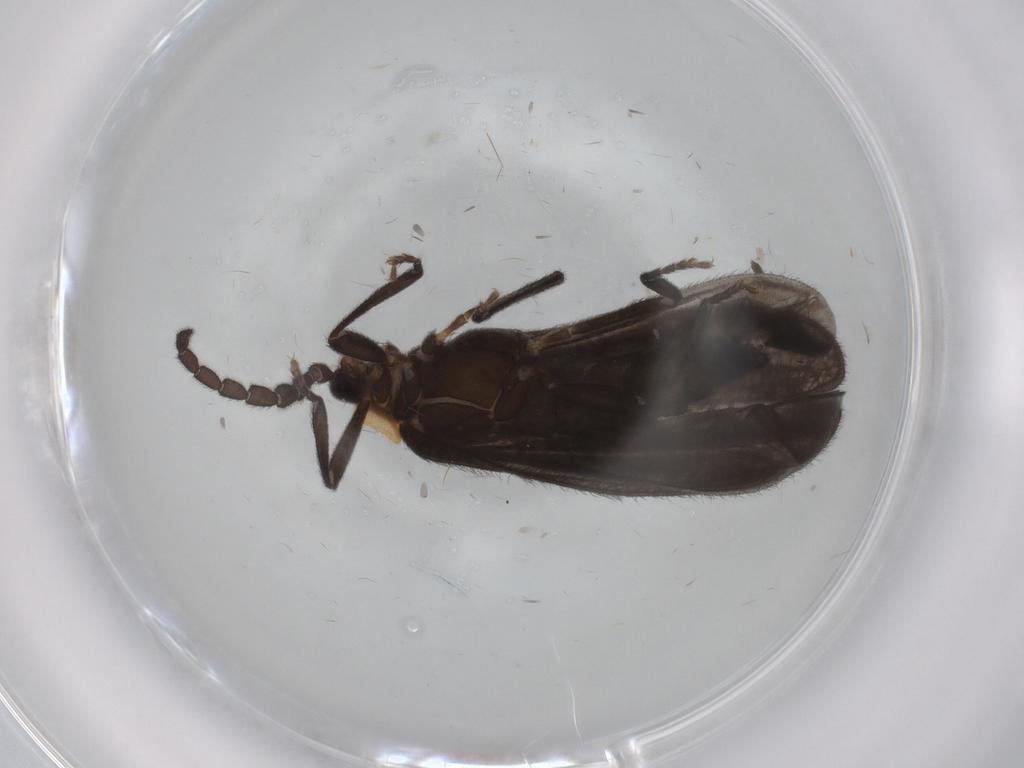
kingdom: Animalia
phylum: Arthropoda
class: Insecta
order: Coleoptera
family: Lycidae
